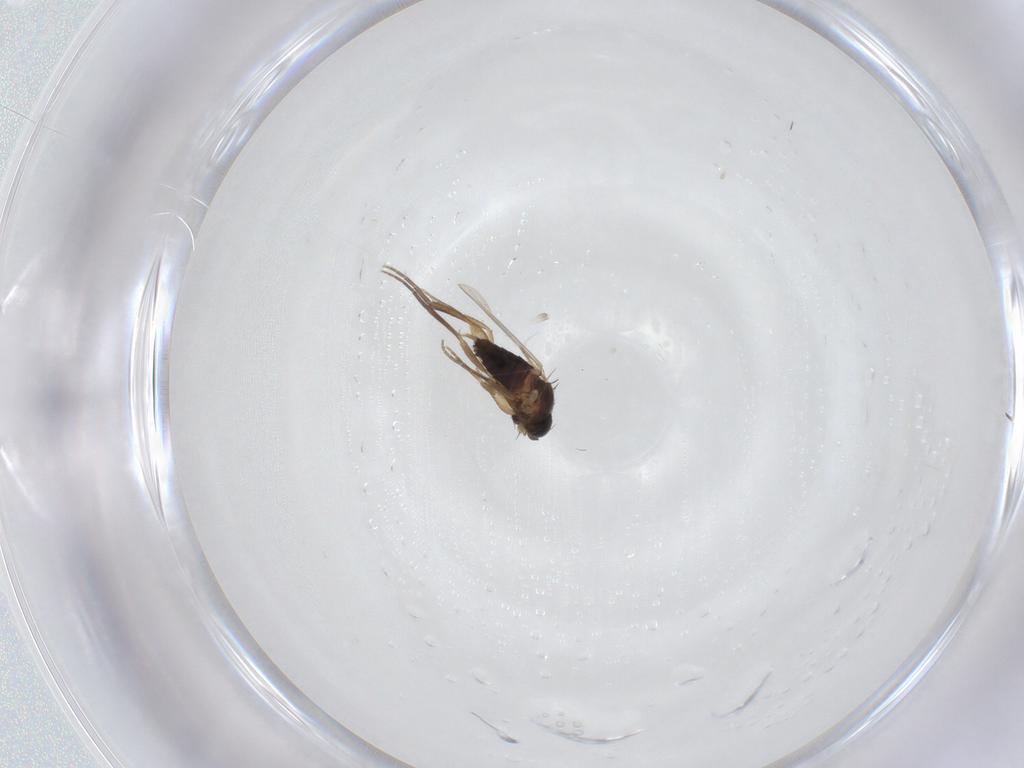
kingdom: Animalia
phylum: Arthropoda
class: Insecta
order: Diptera
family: Phoridae
